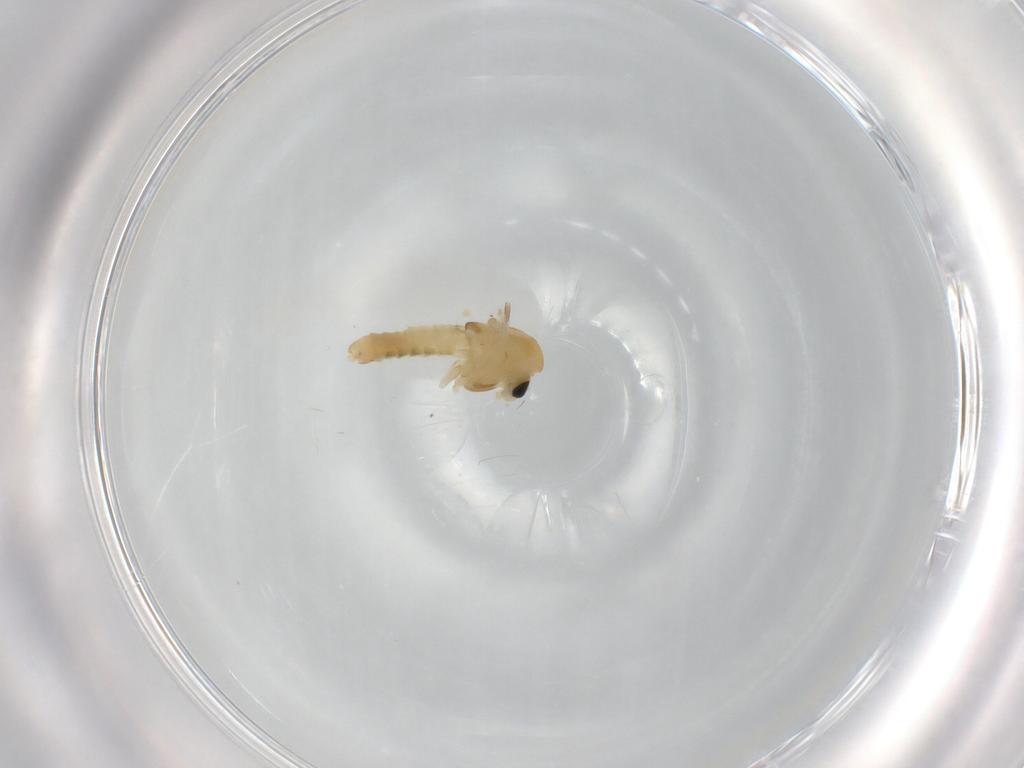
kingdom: Animalia
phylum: Arthropoda
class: Insecta
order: Diptera
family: Chironomidae
